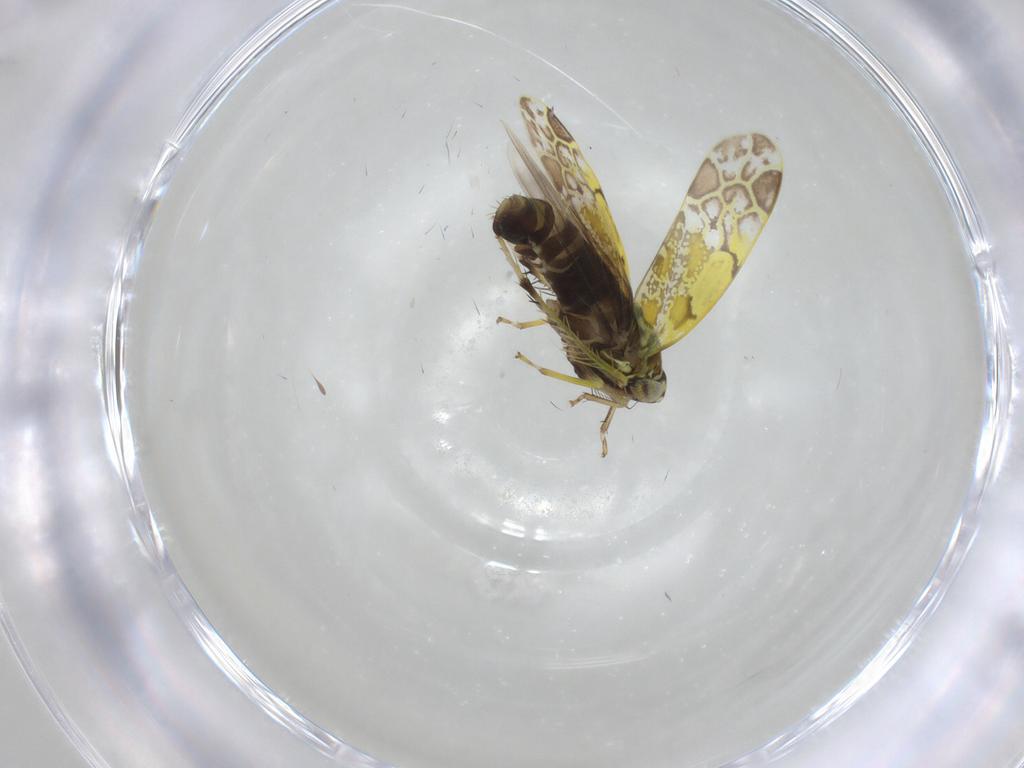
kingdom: Animalia
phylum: Arthropoda
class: Insecta
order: Hemiptera
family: Cicadellidae
